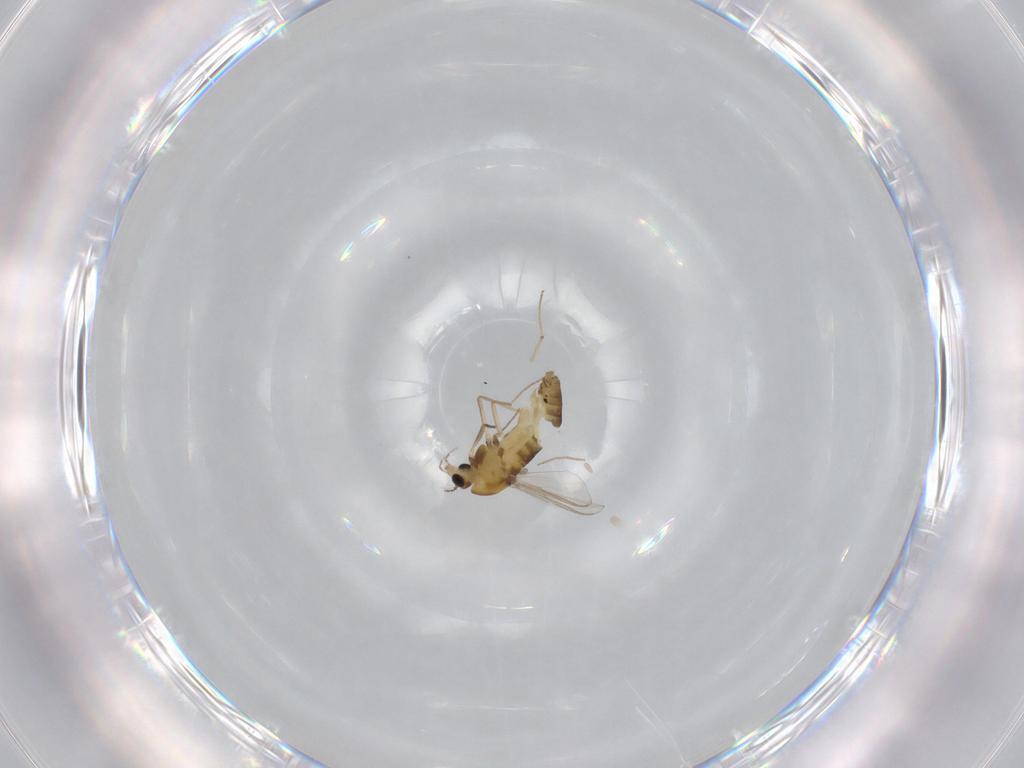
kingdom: Animalia
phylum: Arthropoda
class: Insecta
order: Diptera
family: Chironomidae
